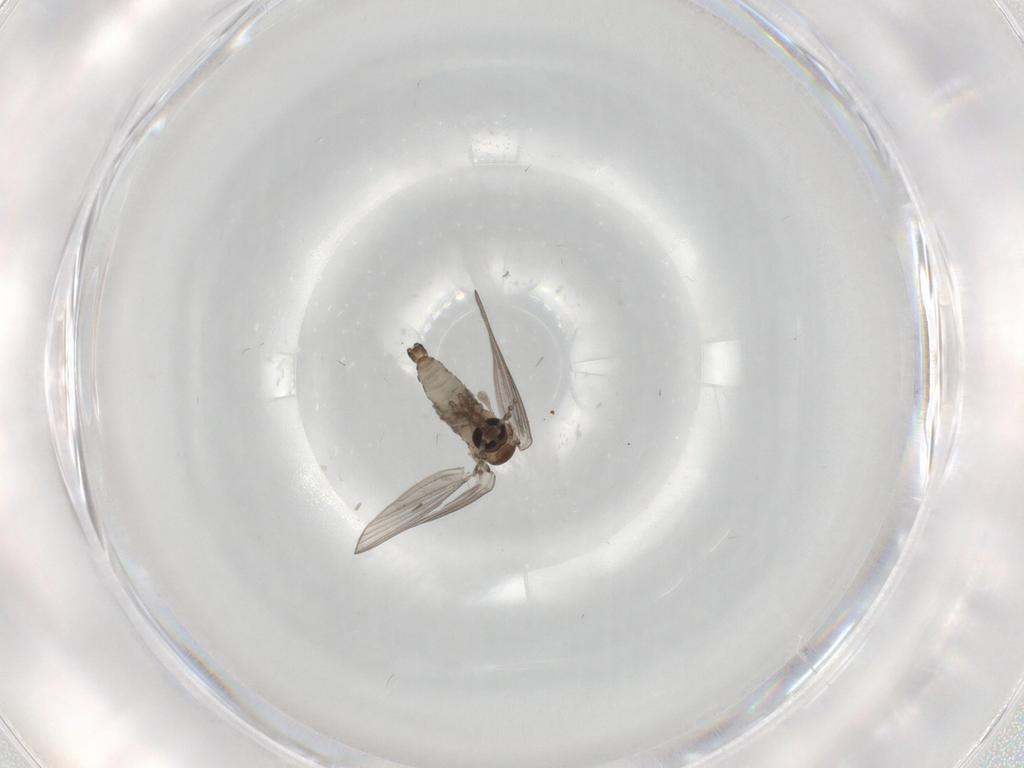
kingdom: Animalia
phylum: Arthropoda
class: Insecta
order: Diptera
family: Psychodidae
